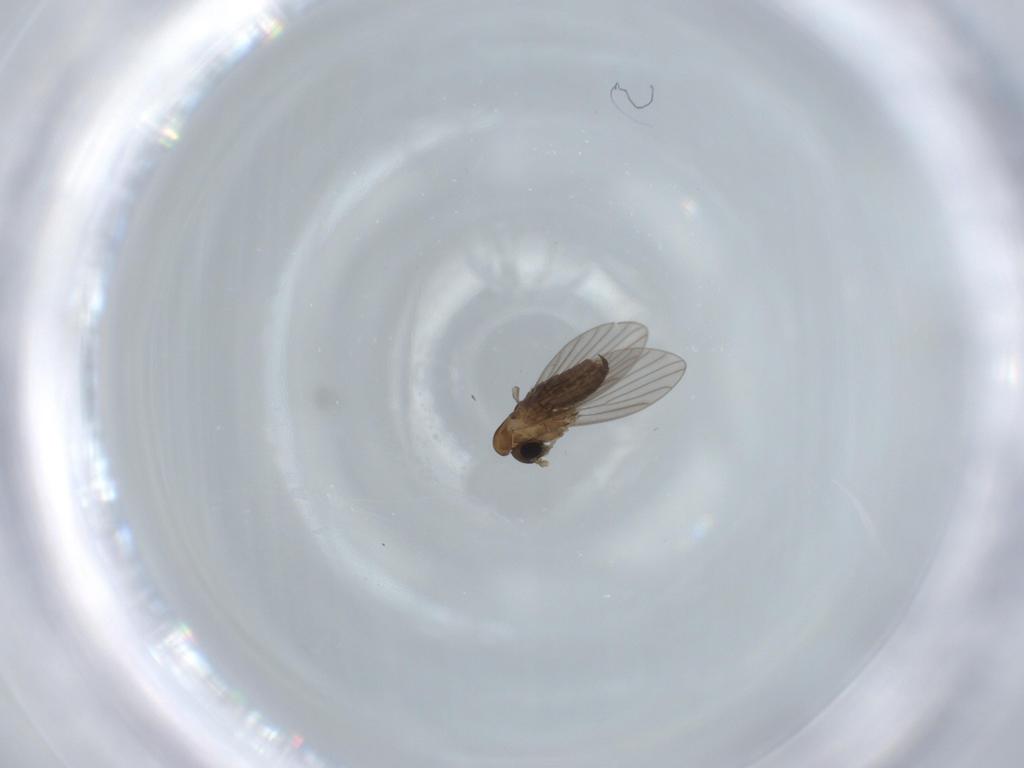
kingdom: Animalia
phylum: Arthropoda
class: Insecta
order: Diptera
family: Psychodidae
